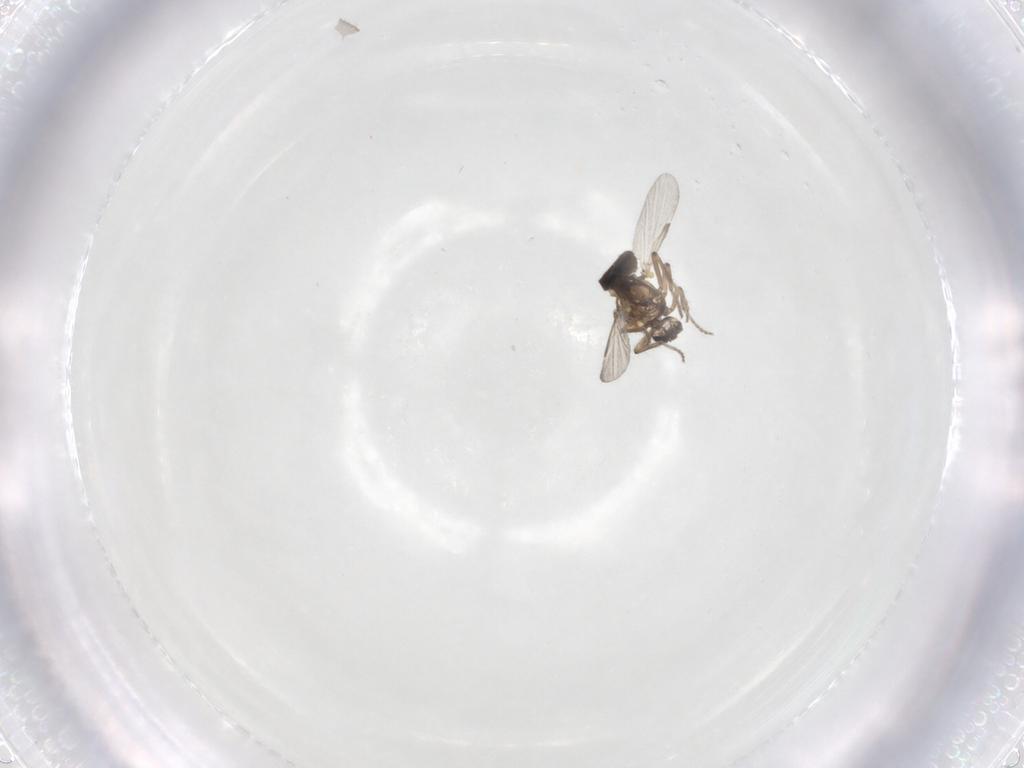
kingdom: Animalia
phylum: Arthropoda
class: Insecta
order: Diptera
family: Ceratopogonidae
